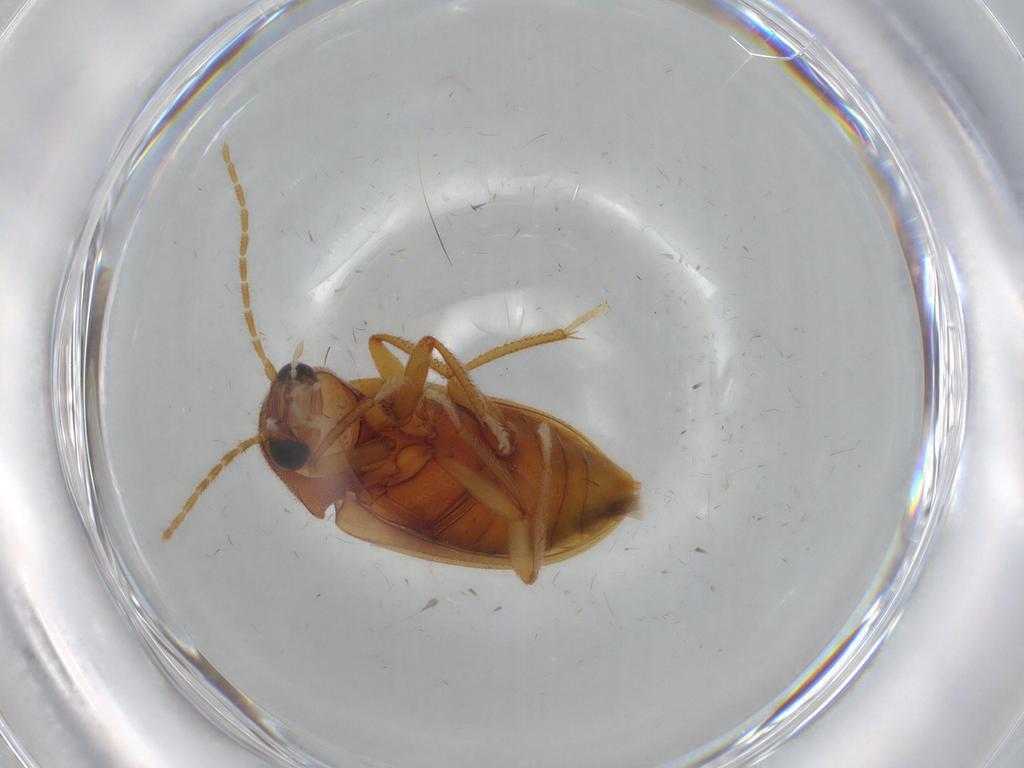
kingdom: Animalia
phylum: Arthropoda
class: Insecta
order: Coleoptera
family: Ptilodactylidae
